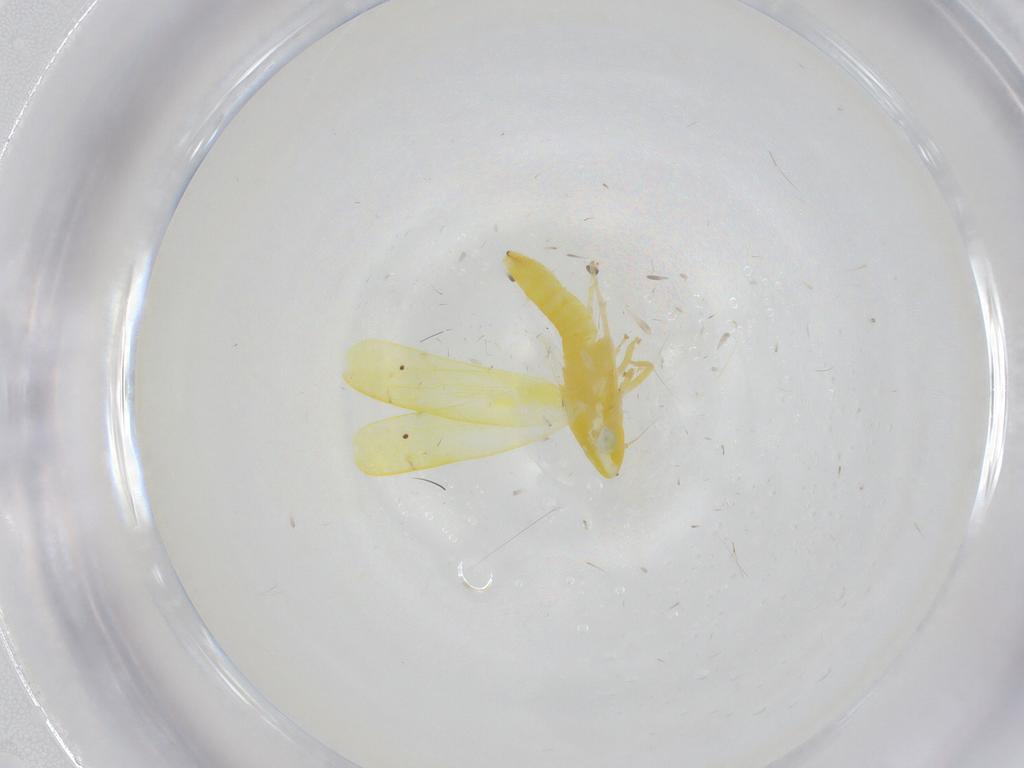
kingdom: Animalia
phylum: Arthropoda
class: Insecta
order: Hemiptera
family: Cicadellidae
